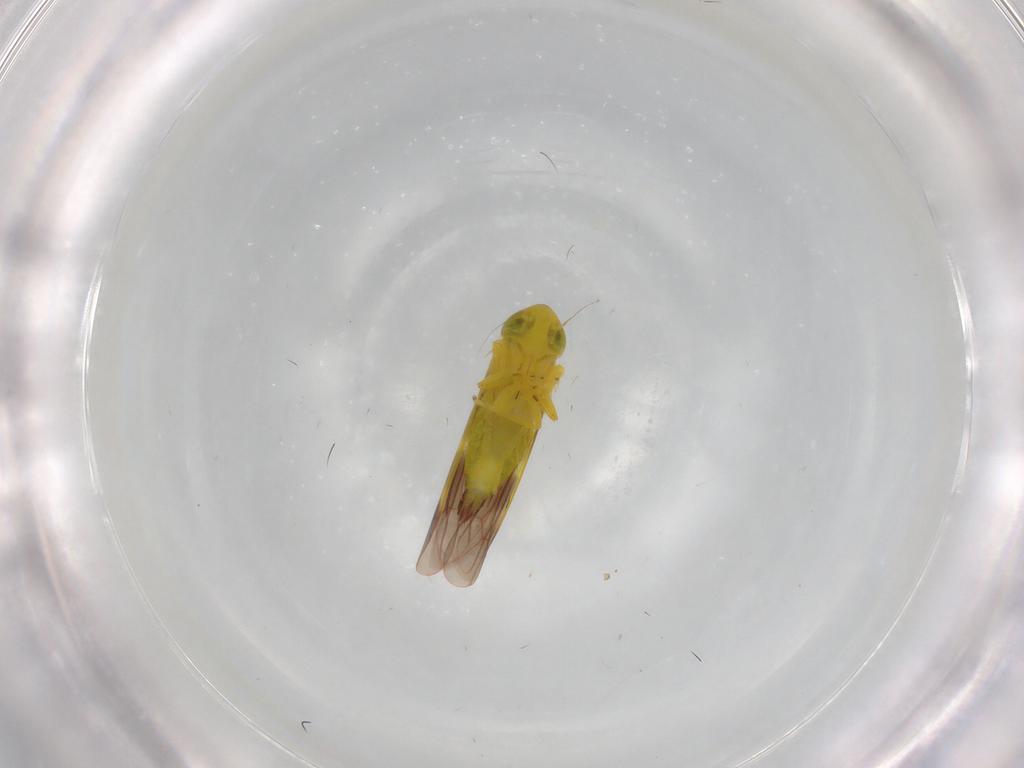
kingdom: Animalia
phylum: Arthropoda
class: Insecta
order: Hemiptera
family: Cicadellidae
